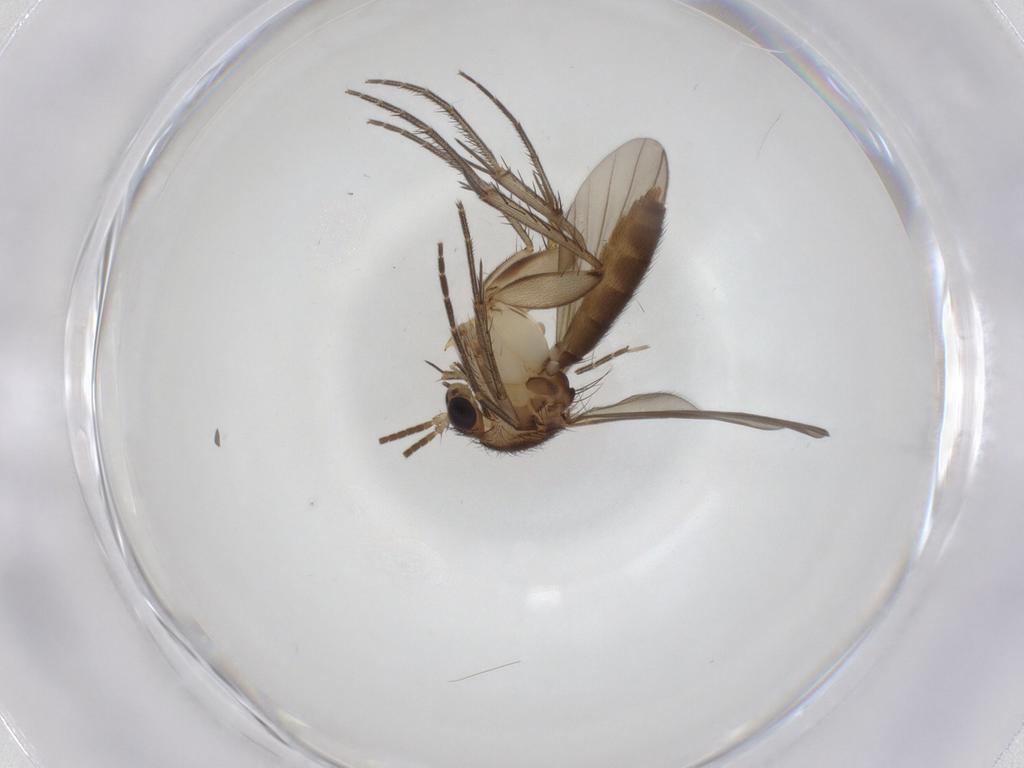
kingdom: Animalia
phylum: Arthropoda
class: Insecta
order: Diptera
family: Mycetophilidae
